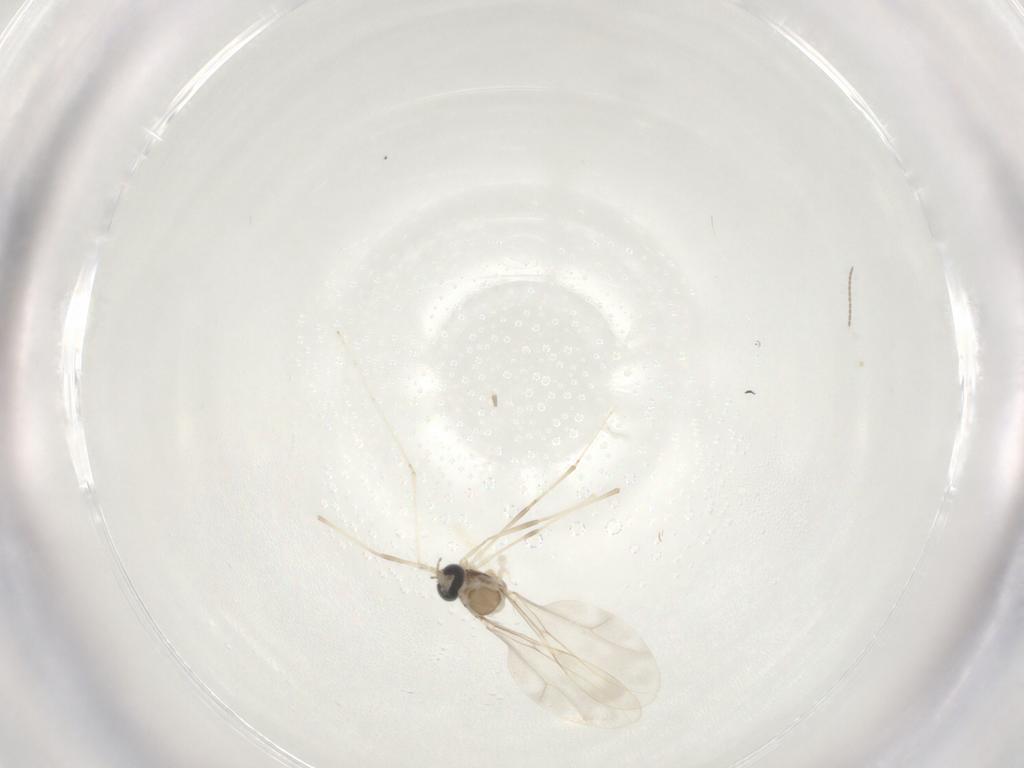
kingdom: Animalia
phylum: Arthropoda
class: Insecta
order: Diptera
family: Cecidomyiidae
